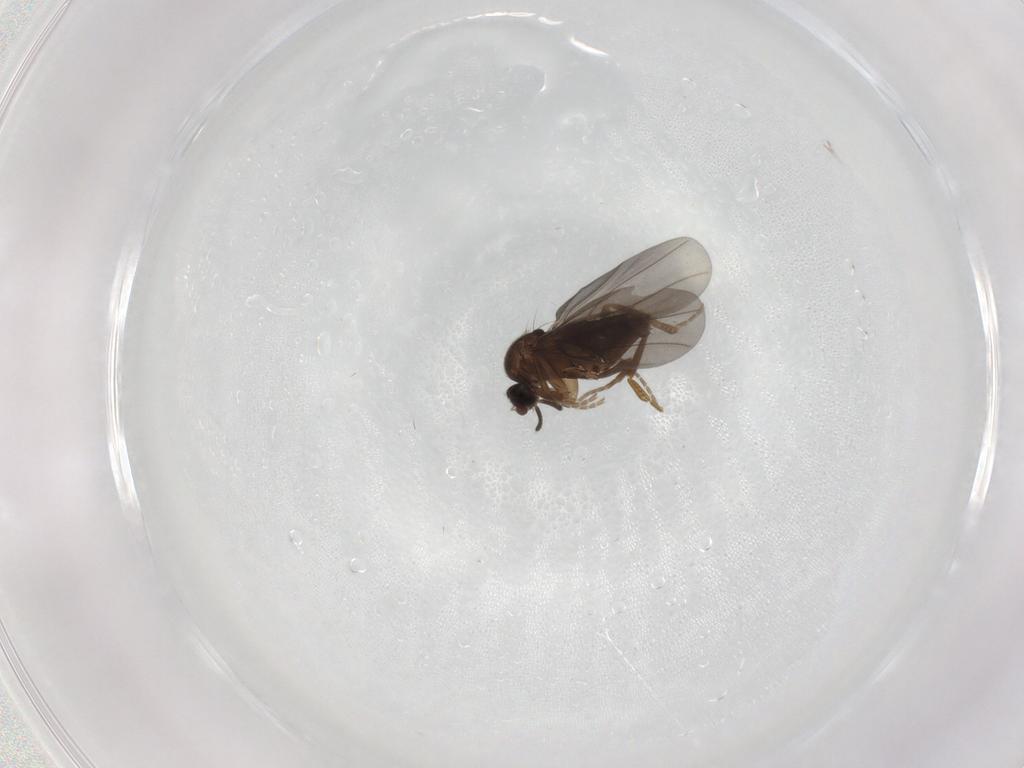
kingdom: Animalia
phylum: Arthropoda
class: Insecta
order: Diptera
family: Phoridae
